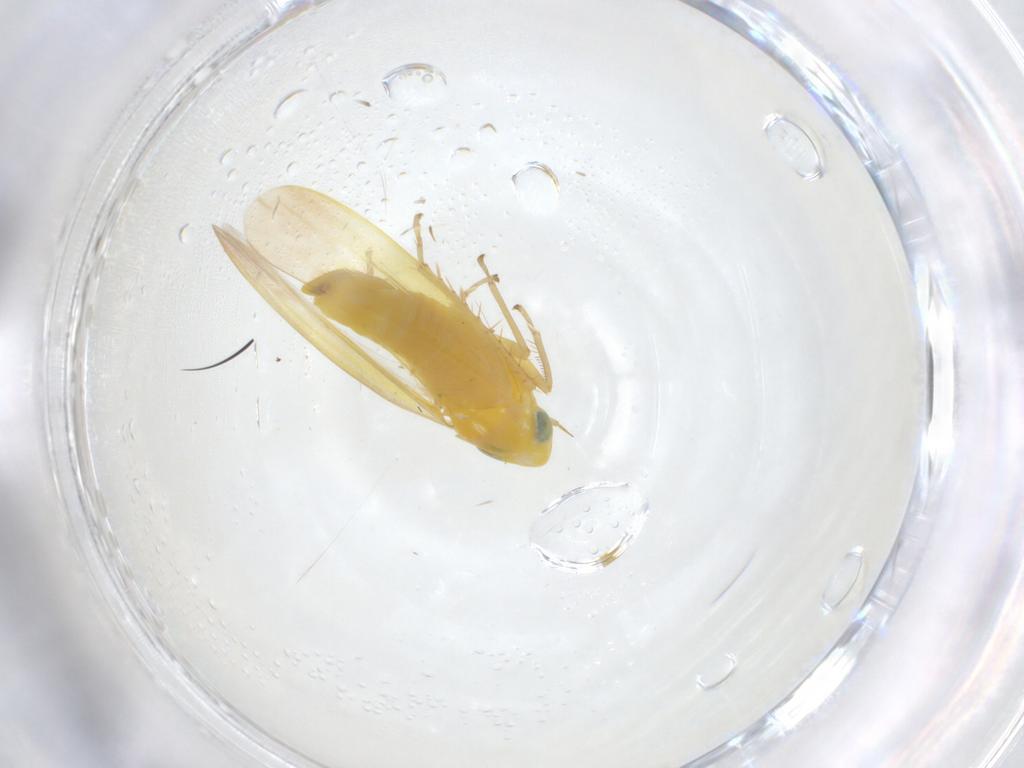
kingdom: Animalia
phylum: Arthropoda
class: Insecta
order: Hemiptera
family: Cicadellidae
